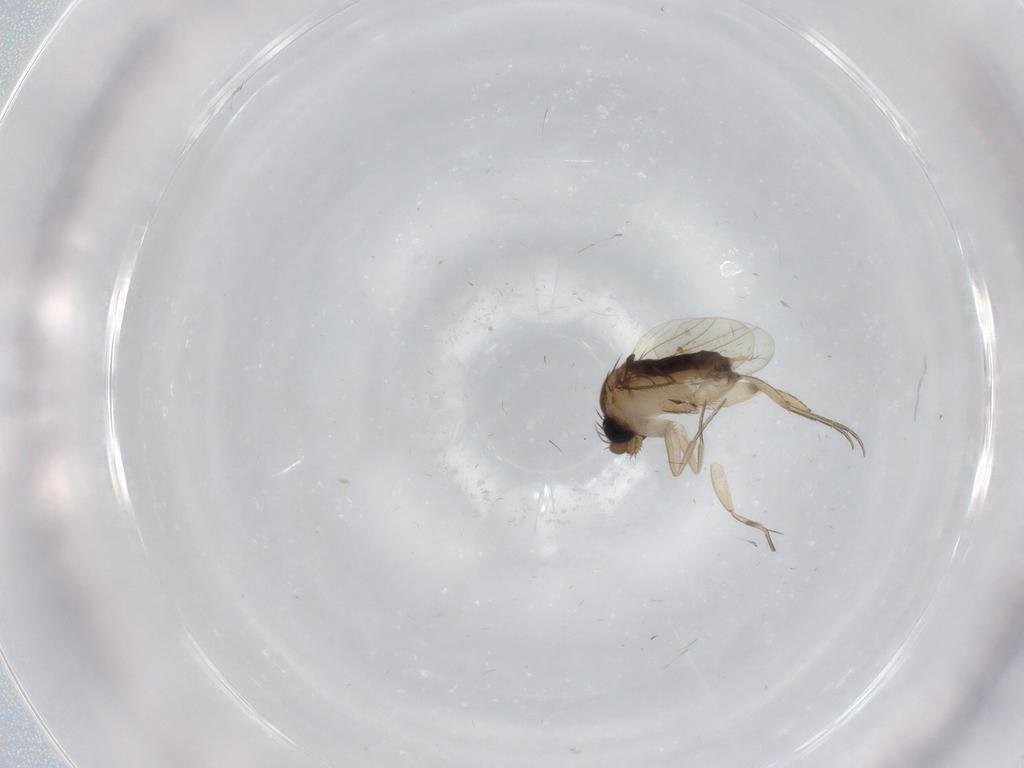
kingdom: Animalia
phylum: Arthropoda
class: Insecta
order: Diptera
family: Phoridae
